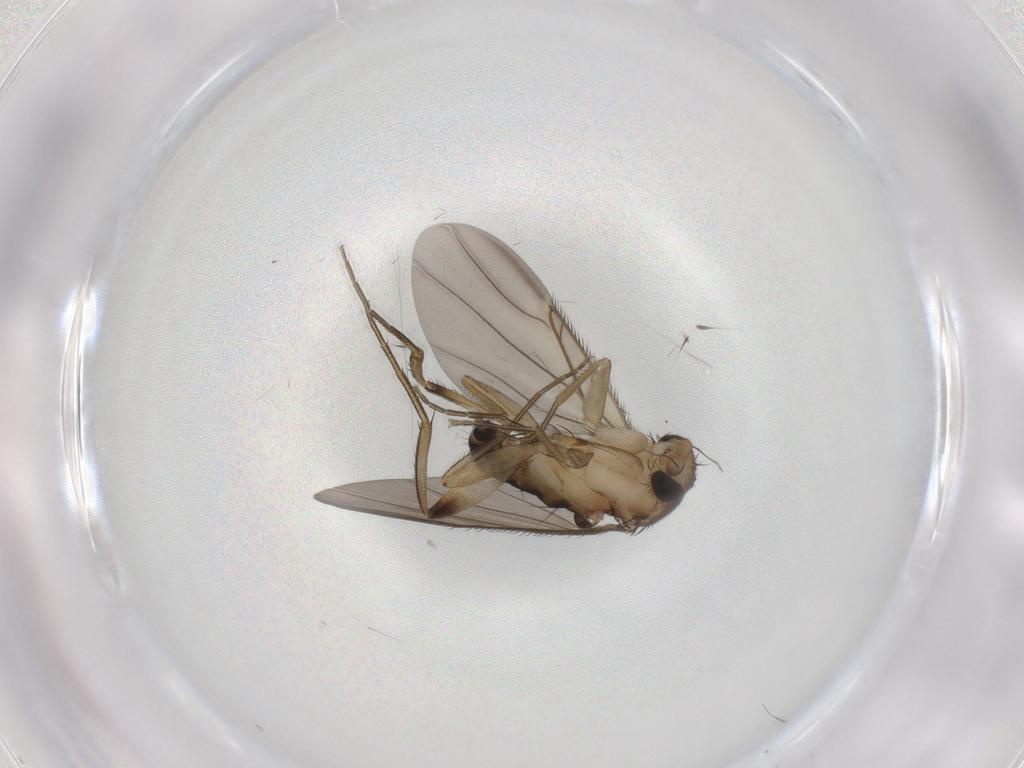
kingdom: Animalia
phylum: Arthropoda
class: Insecta
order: Diptera
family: Phoridae
